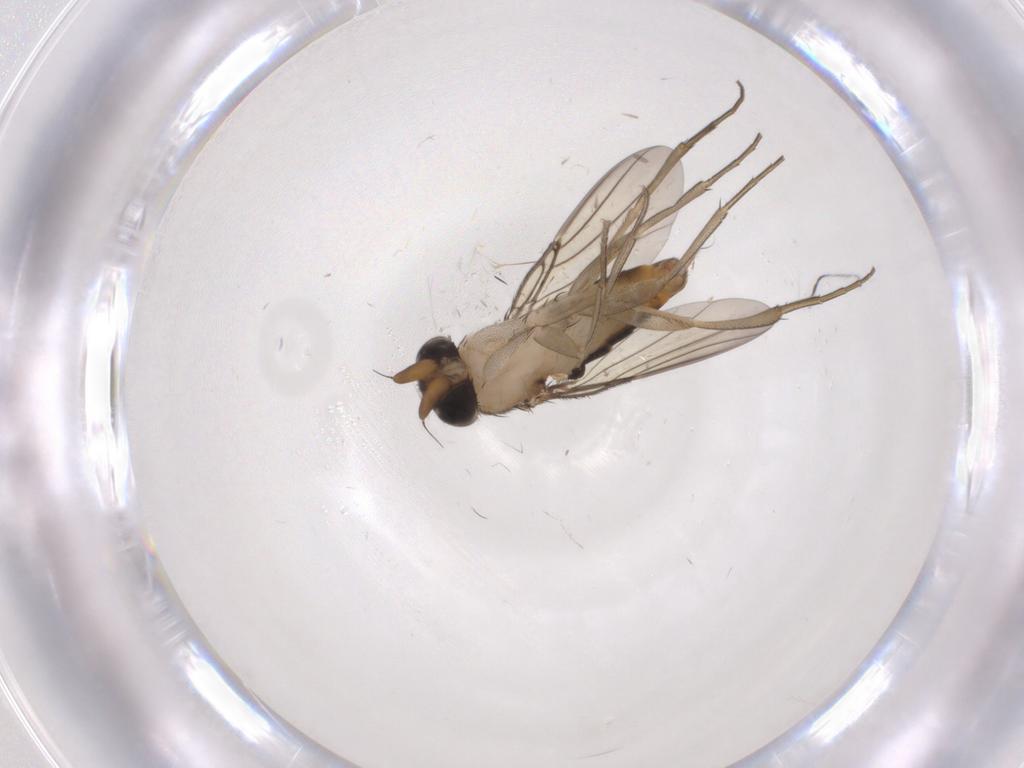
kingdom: Animalia
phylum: Arthropoda
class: Insecta
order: Diptera
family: Phoridae
